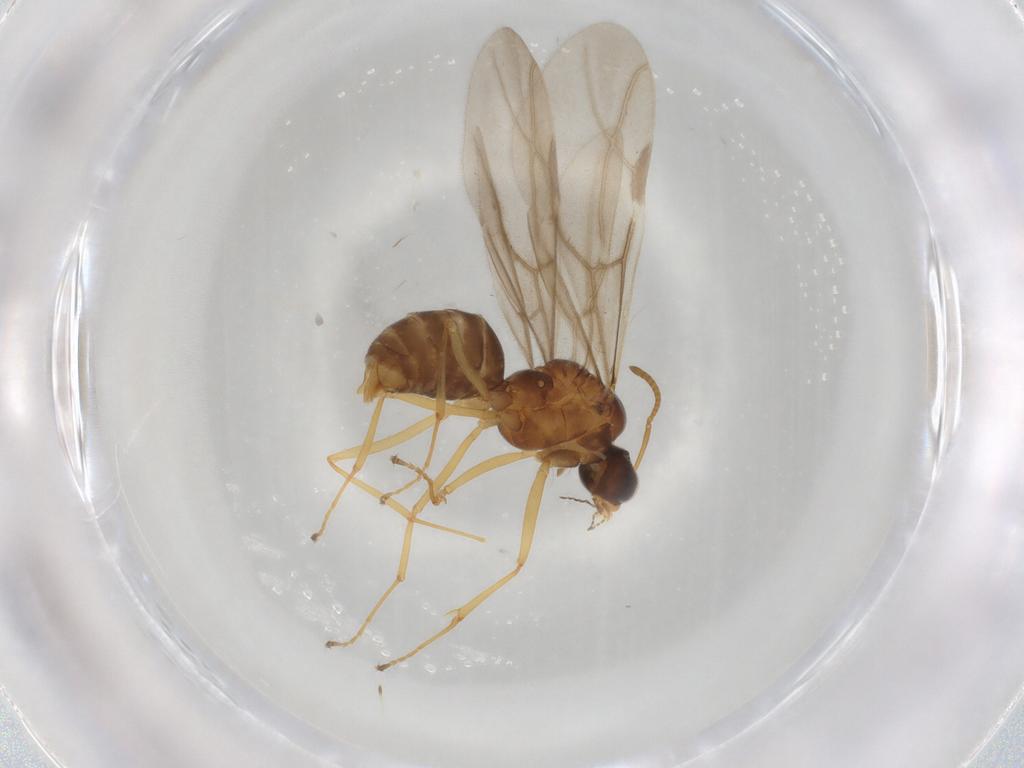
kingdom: Animalia
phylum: Arthropoda
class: Insecta
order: Hymenoptera
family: Formicidae
